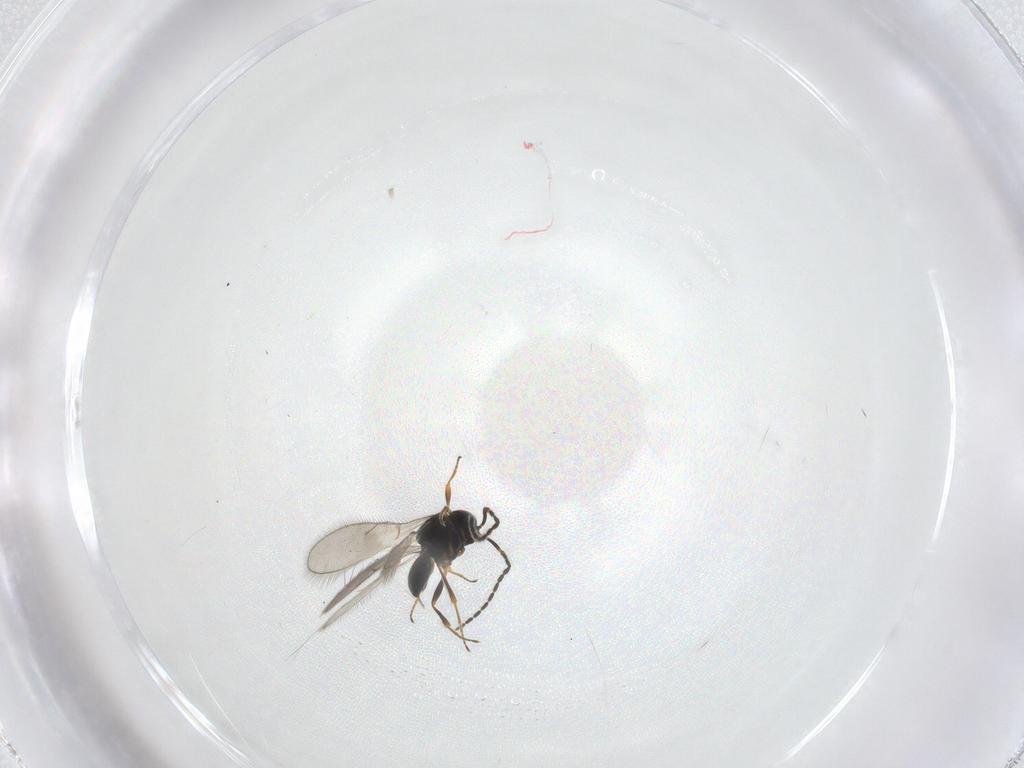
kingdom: Animalia
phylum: Arthropoda
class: Insecta
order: Hymenoptera
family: Scelionidae
